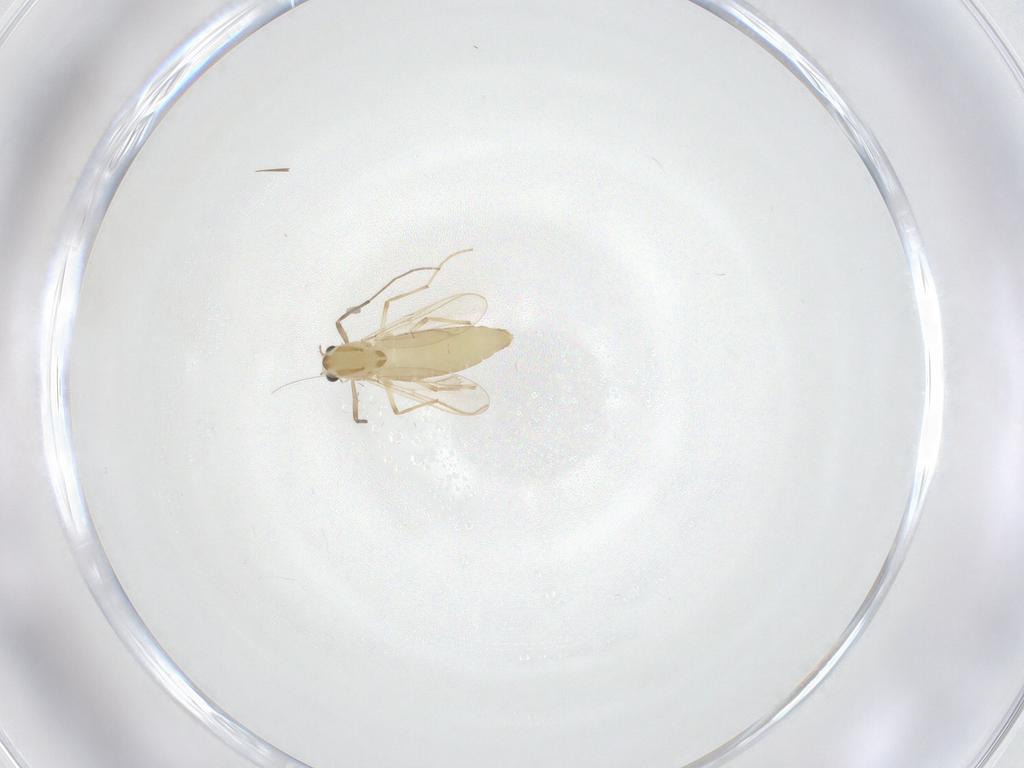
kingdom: Animalia
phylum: Arthropoda
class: Insecta
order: Diptera
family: Chironomidae
